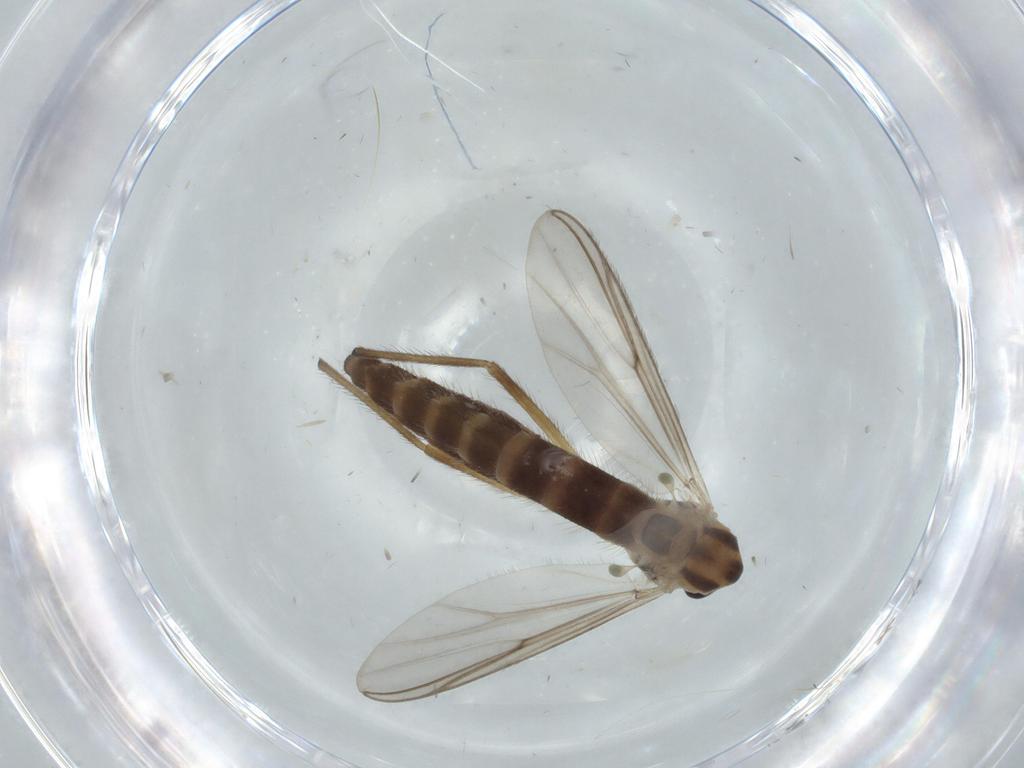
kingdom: Animalia
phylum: Arthropoda
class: Insecta
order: Diptera
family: Chironomidae
